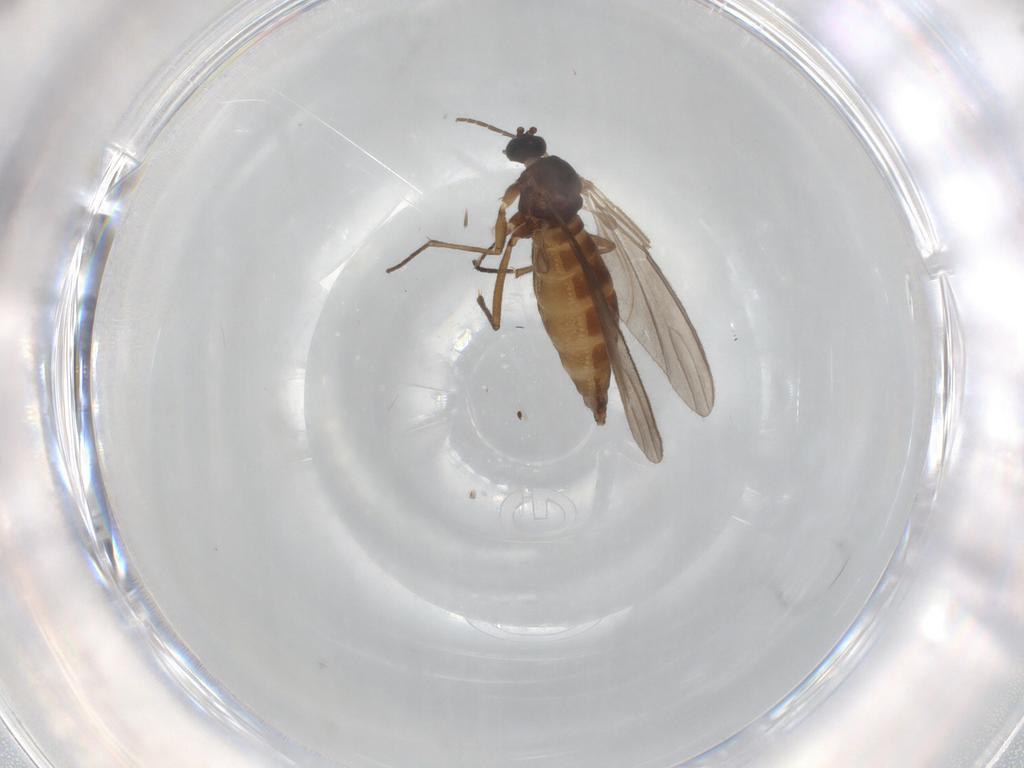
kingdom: Animalia
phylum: Arthropoda
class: Insecta
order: Diptera
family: Sciaridae
